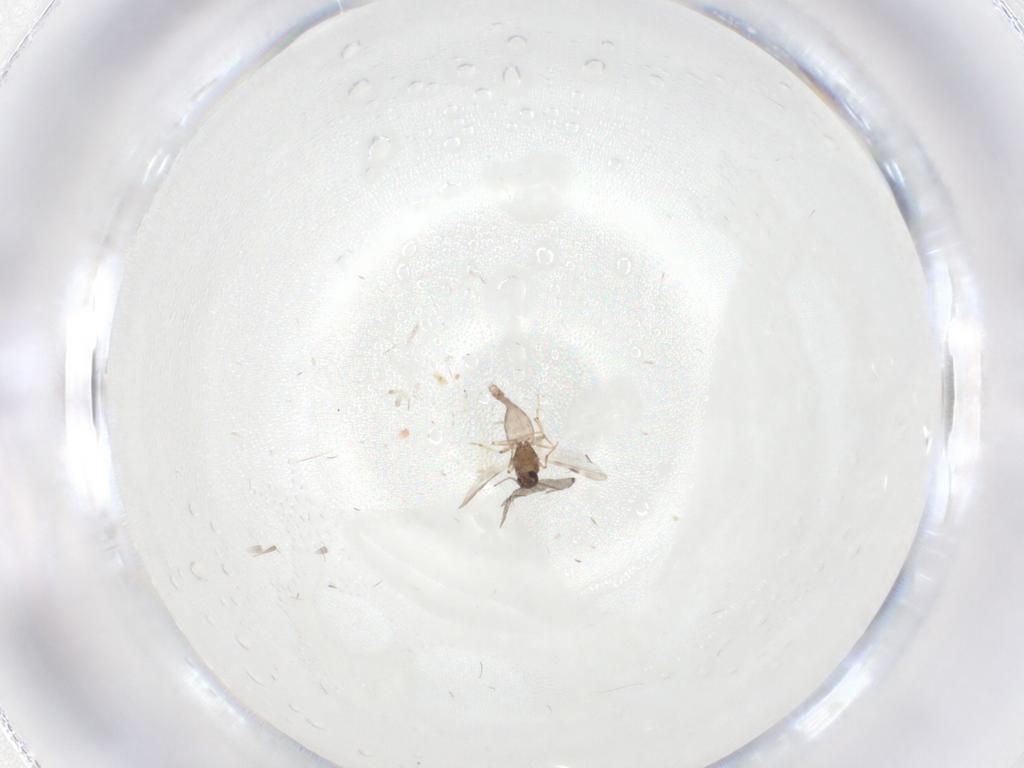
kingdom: Animalia
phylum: Arthropoda
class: Insecta
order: Diptera
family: Chironomidae
